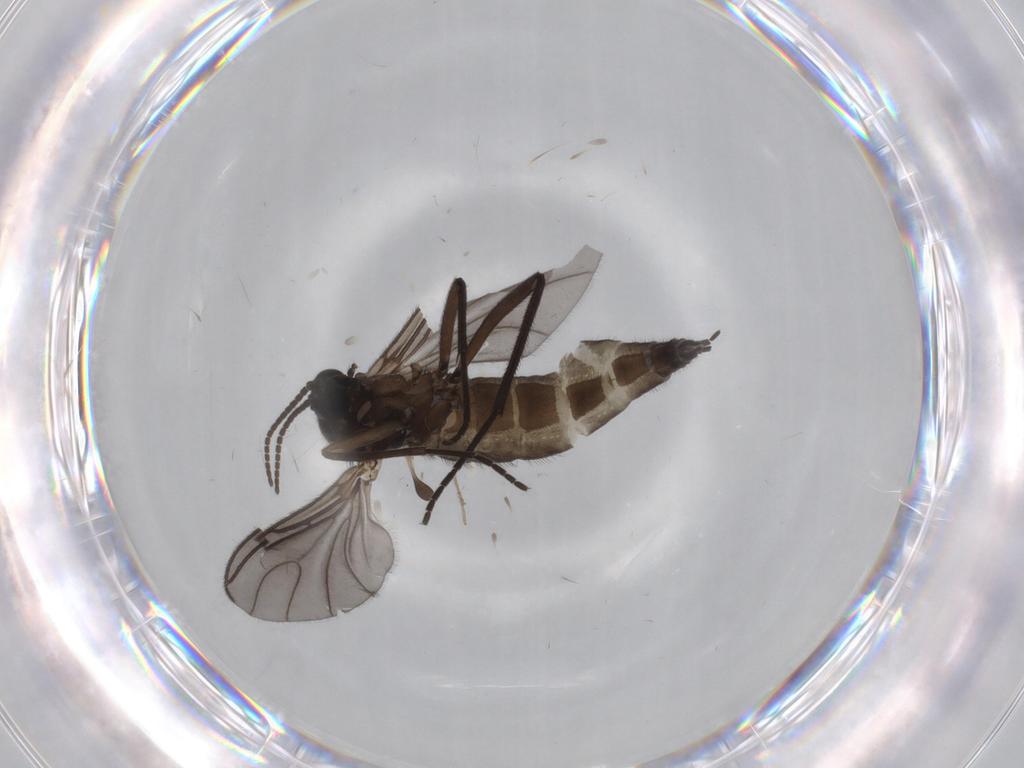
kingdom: Animalia
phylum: Arthropoda
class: Insecta
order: Diptera
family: Sciaridae
